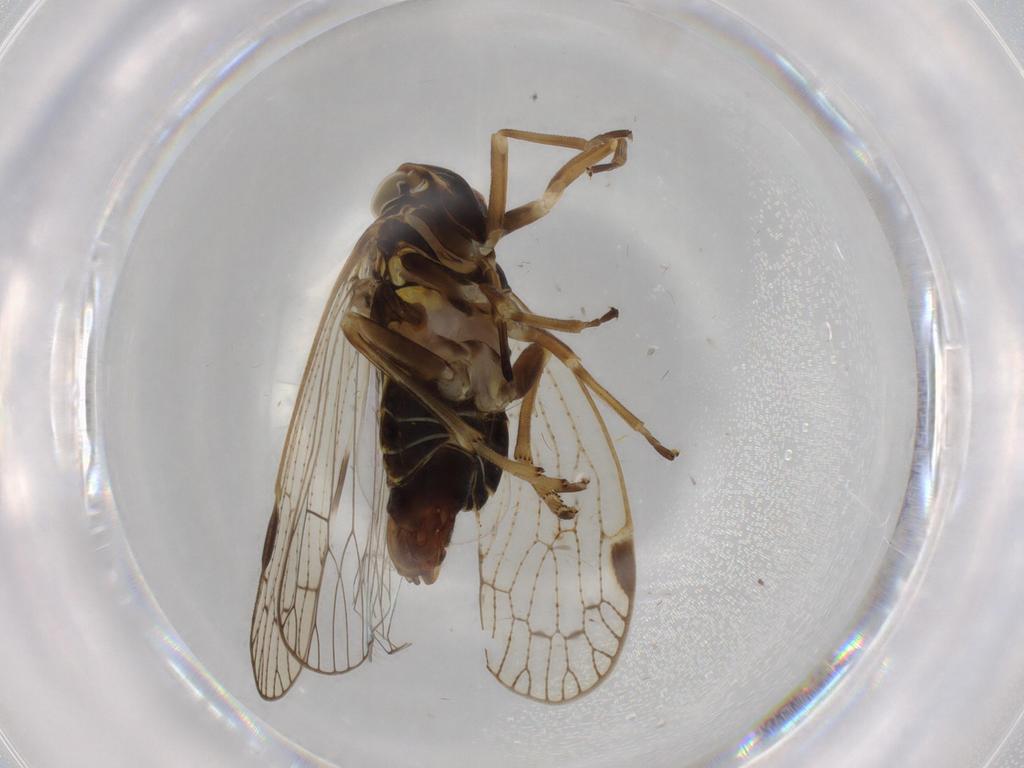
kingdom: Animalia
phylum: Arthropoda
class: Insecta
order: Hemiptera
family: Cixiidae
